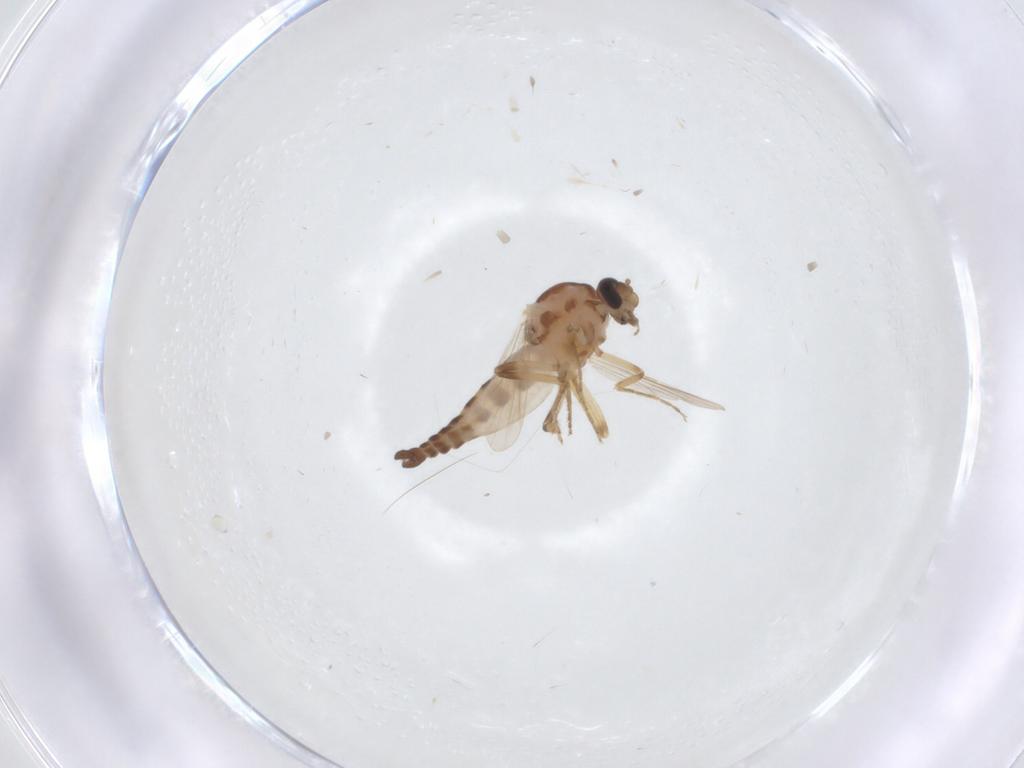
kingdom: Animalia
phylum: Arthropoda
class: Insecta
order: Diptera
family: Ceratopogonidae
